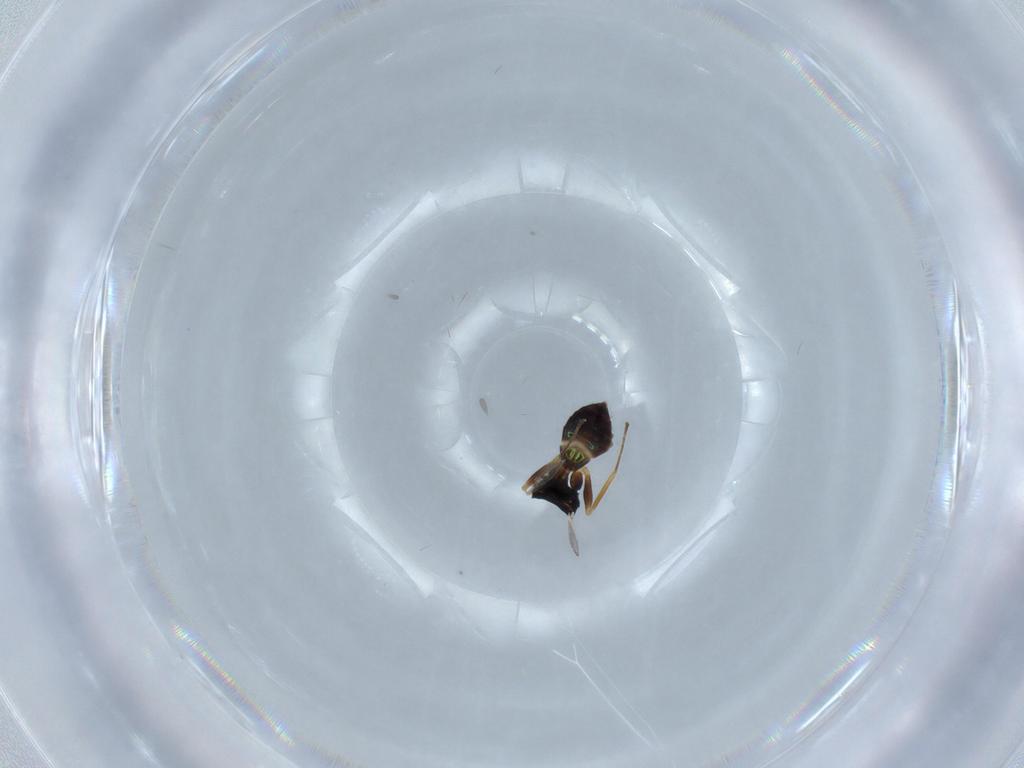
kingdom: Animalia
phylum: Arthropoda
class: Insecta
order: Hymenoptera
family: Pteromalidae
